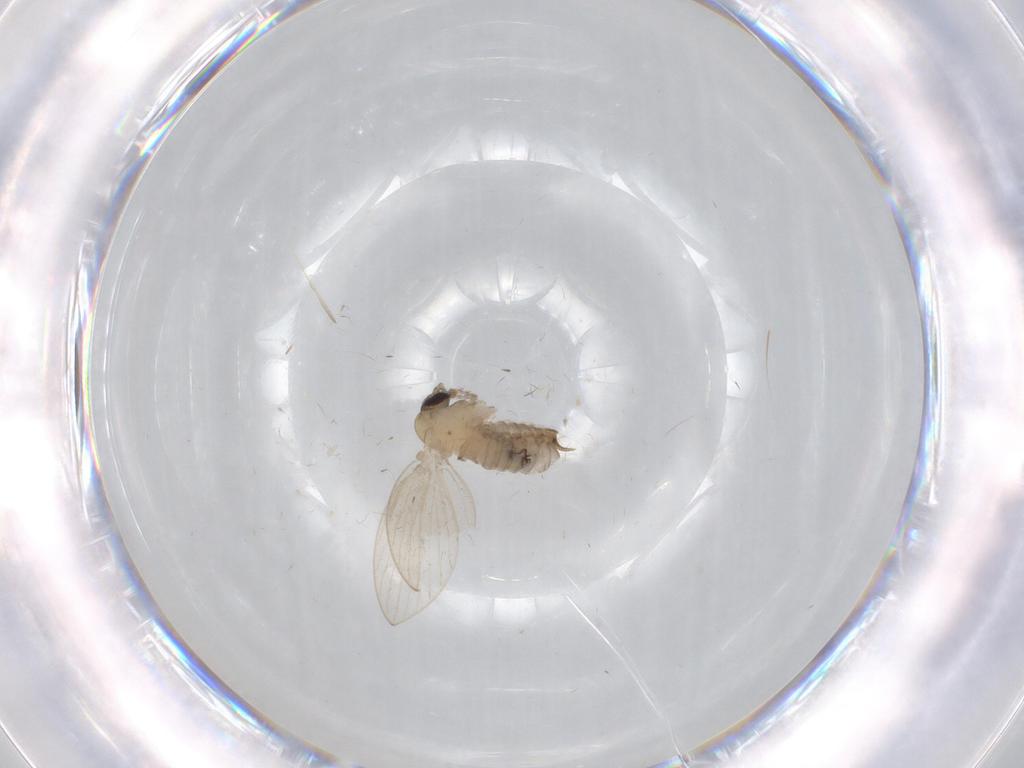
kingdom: Animalia
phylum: Arthropoda
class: Insecta
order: Diptera
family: Psychodidae
